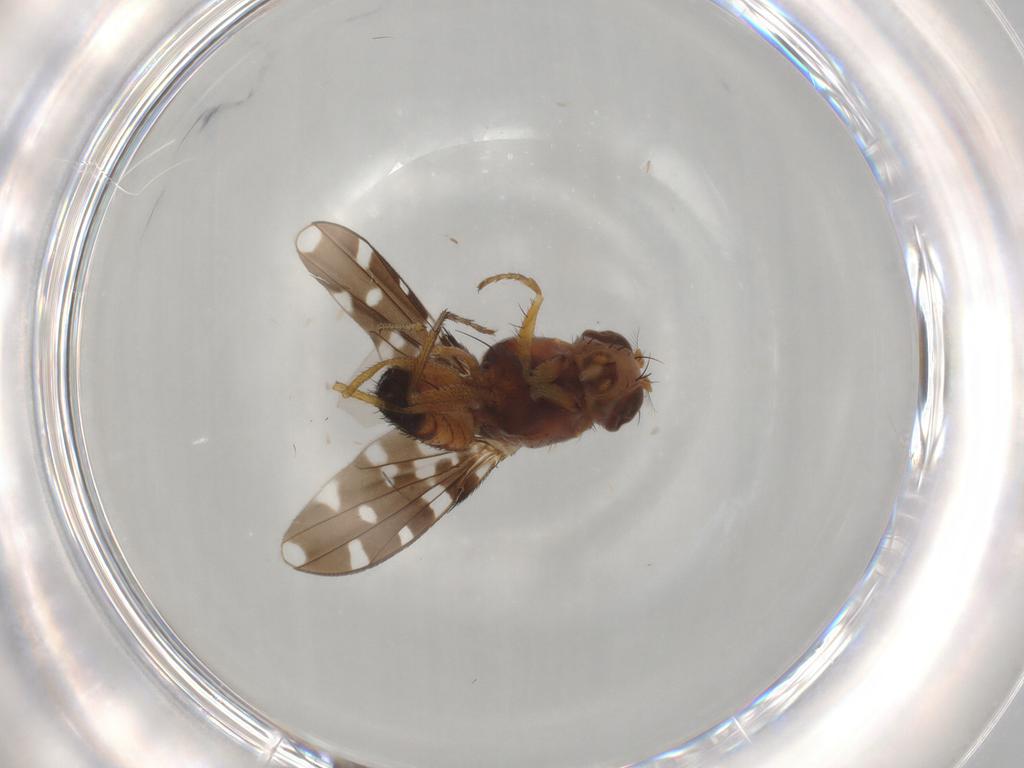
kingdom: Animalia
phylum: Arthropoda
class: Insecta
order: Diptera
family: Ephydridae
